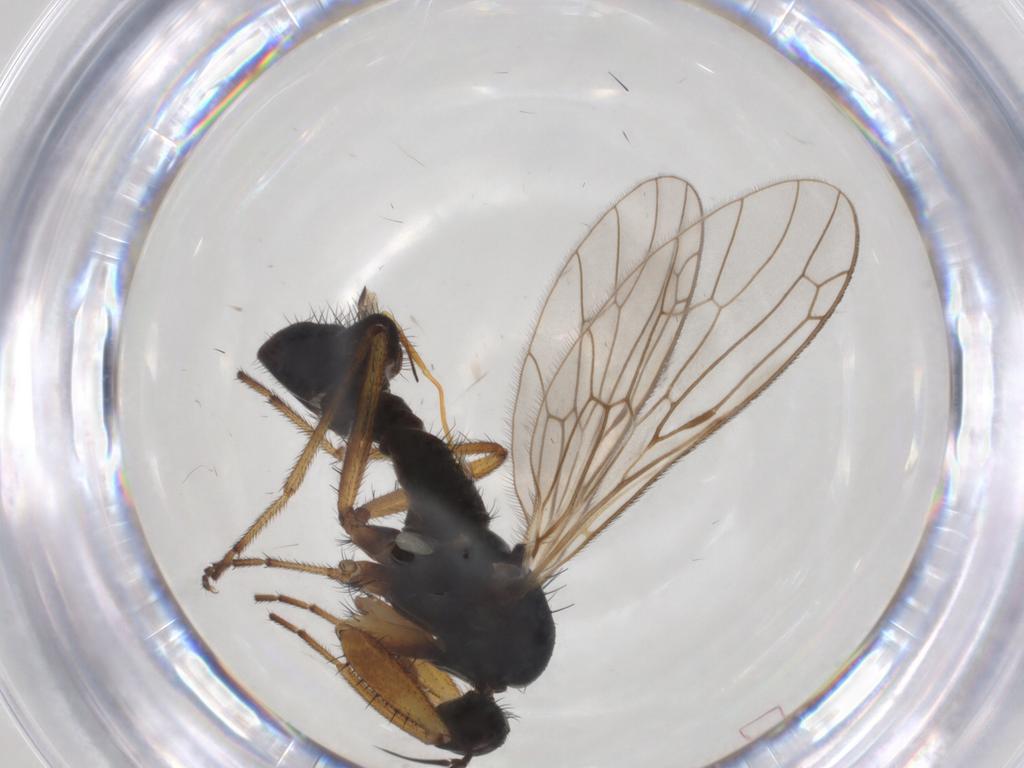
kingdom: Animalia
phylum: Arthropoda
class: Insecta
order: Diptera
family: Empididae
